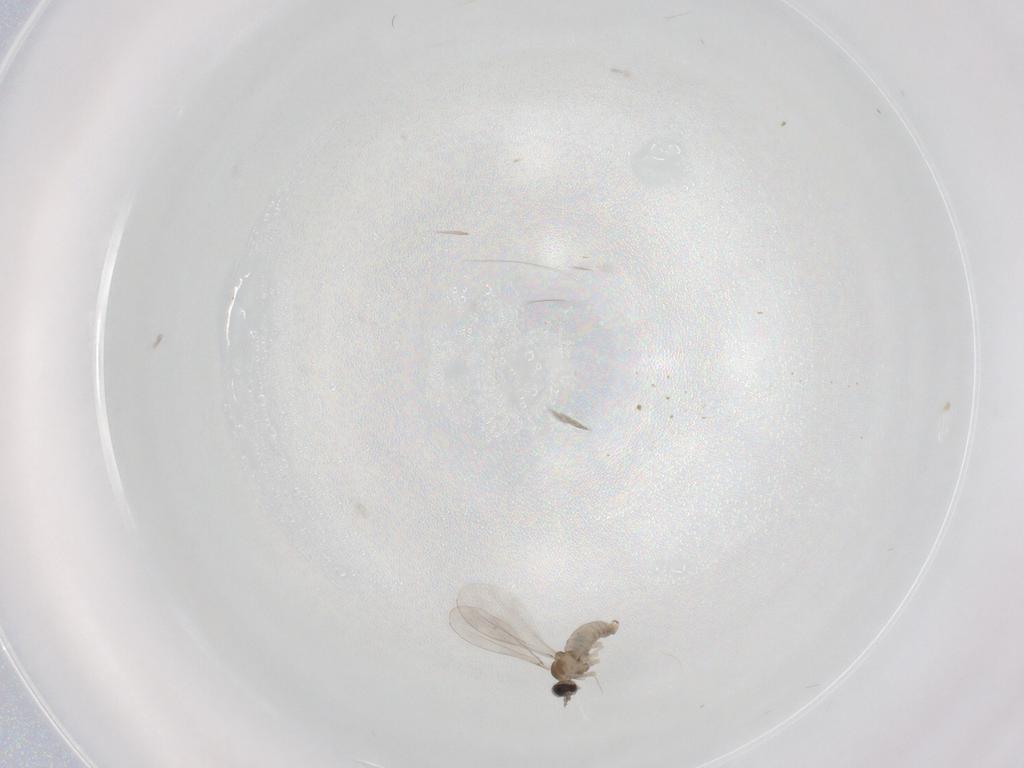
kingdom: Animalia
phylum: Arthropoda
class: Insecta
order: Diptera
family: Cecidomyiidae
